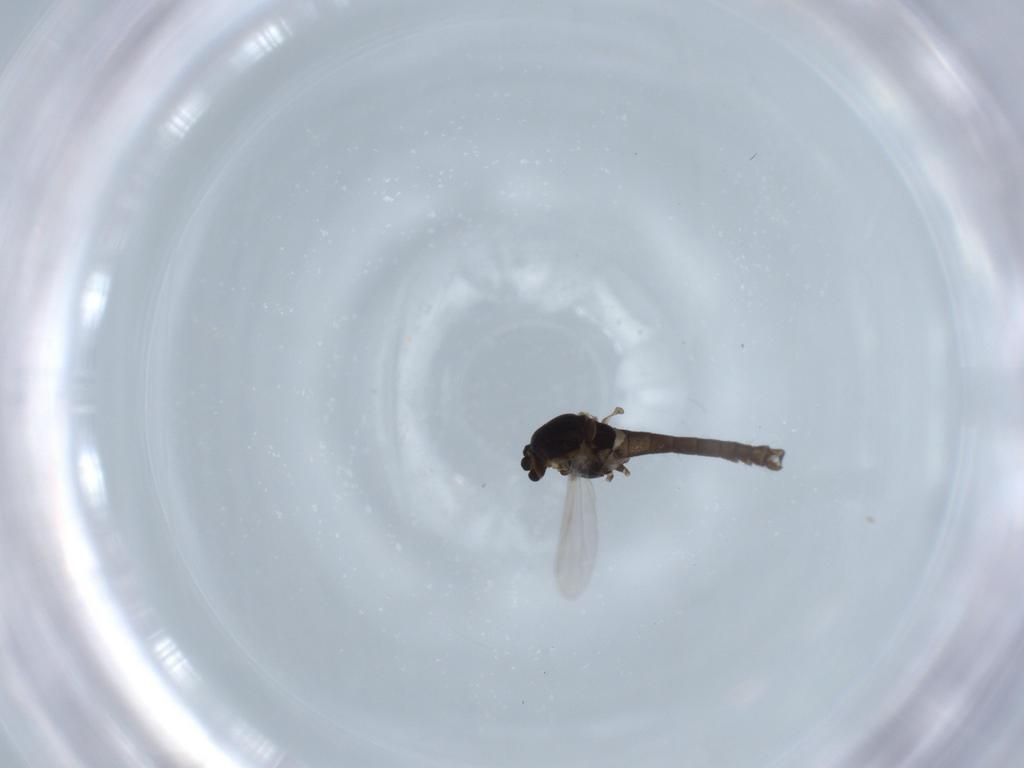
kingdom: Animalia
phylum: Arthropoda
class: Insecta
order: Diptera
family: Chironomidae
